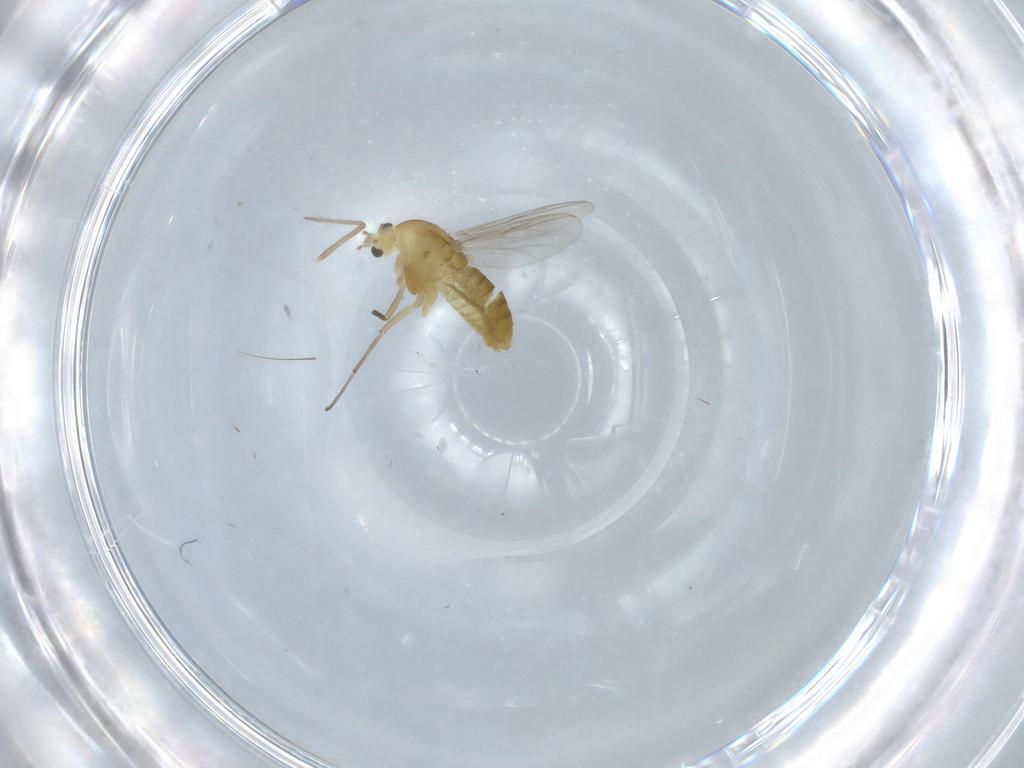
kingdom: Animalia
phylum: Arthropoda
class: Insecta
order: Diptera
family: Chironomidae
